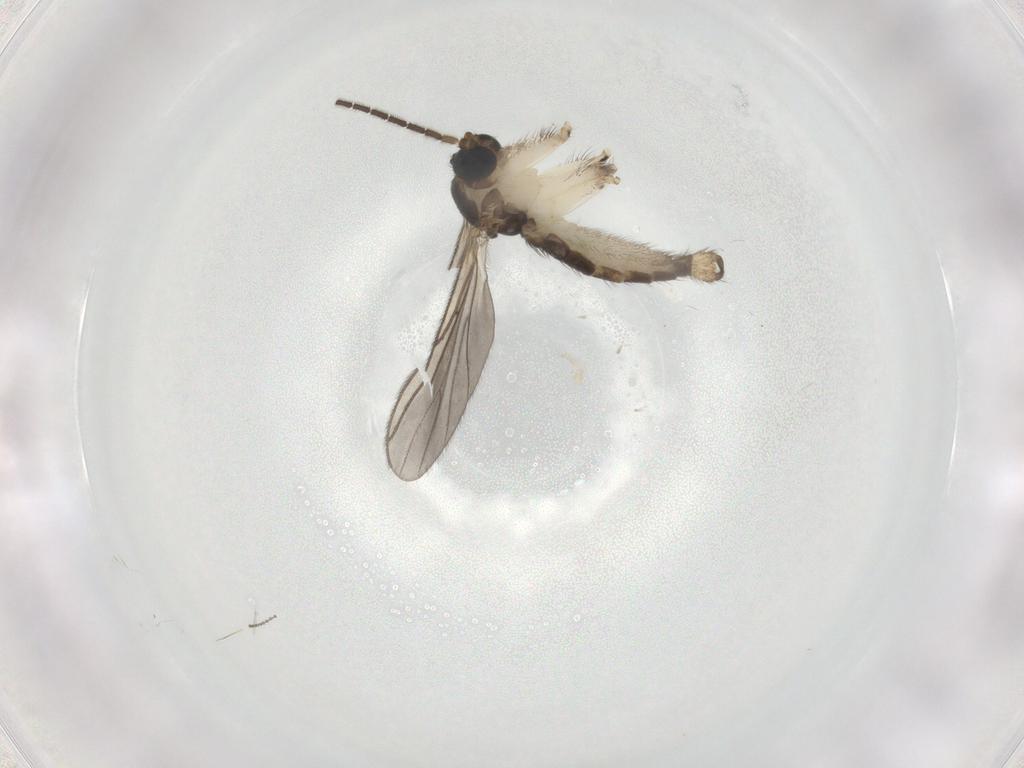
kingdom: Animalia
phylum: Arthropoda
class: Insecta
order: Diptera
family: Sciaridae
